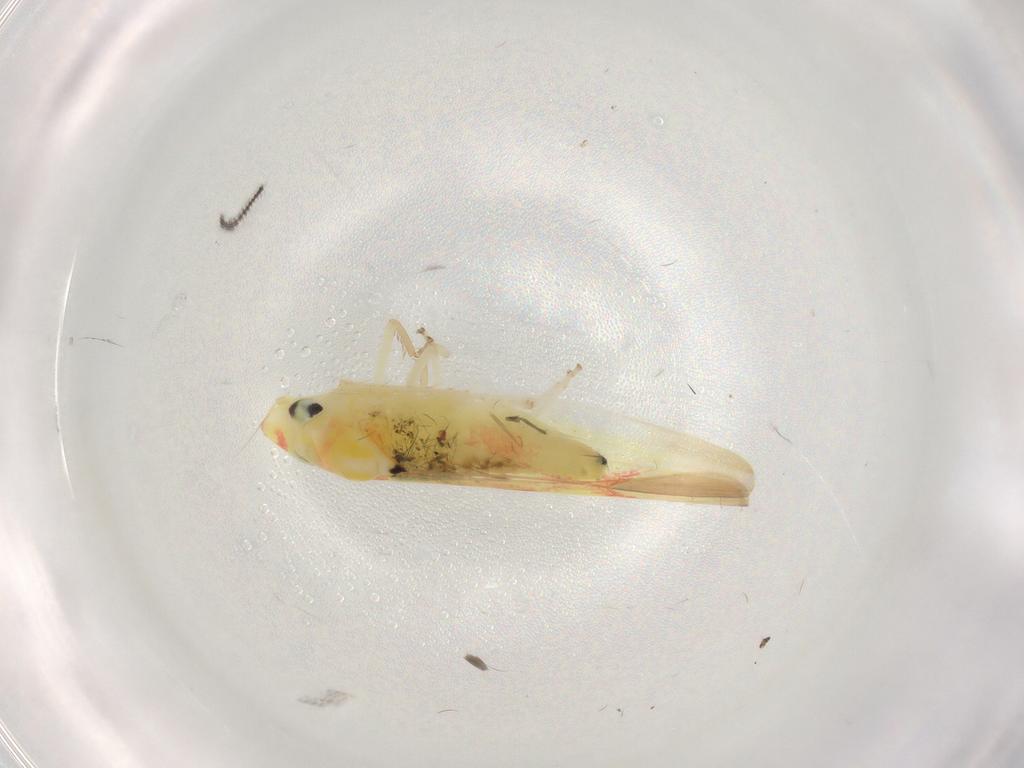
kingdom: Animalia
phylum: Arthropoda
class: Insecta
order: Hemiptera
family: Cicadellidae
